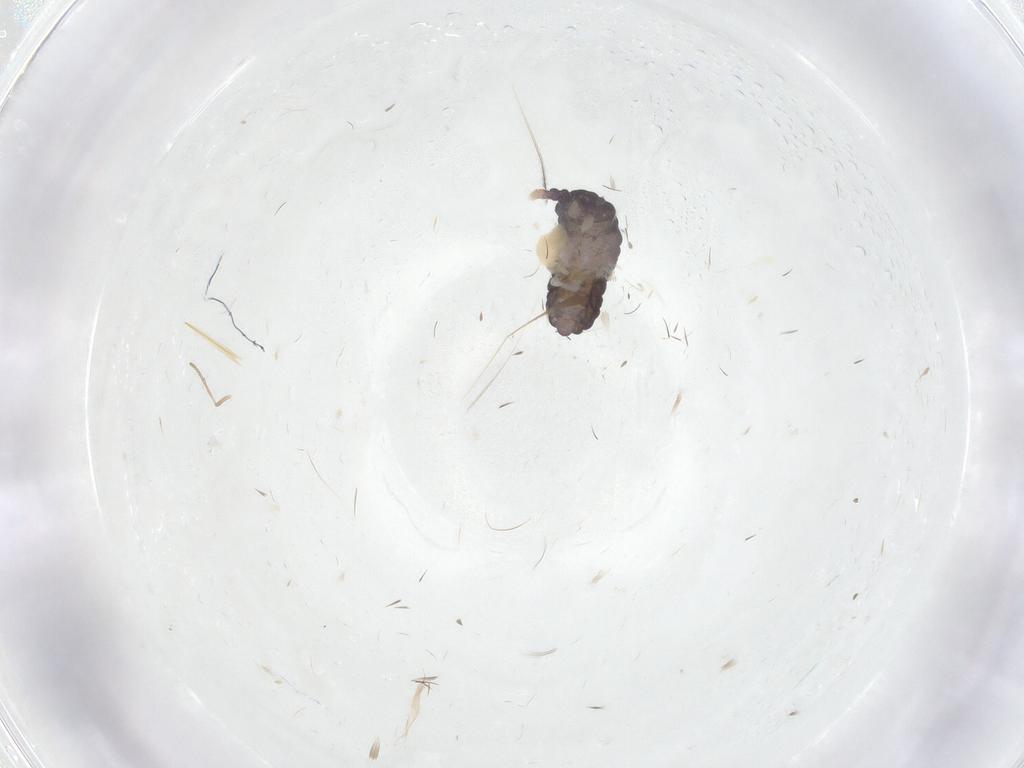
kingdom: Animalia
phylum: Arthropoda
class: Collembola
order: Poduromorpha
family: Neanuridae
